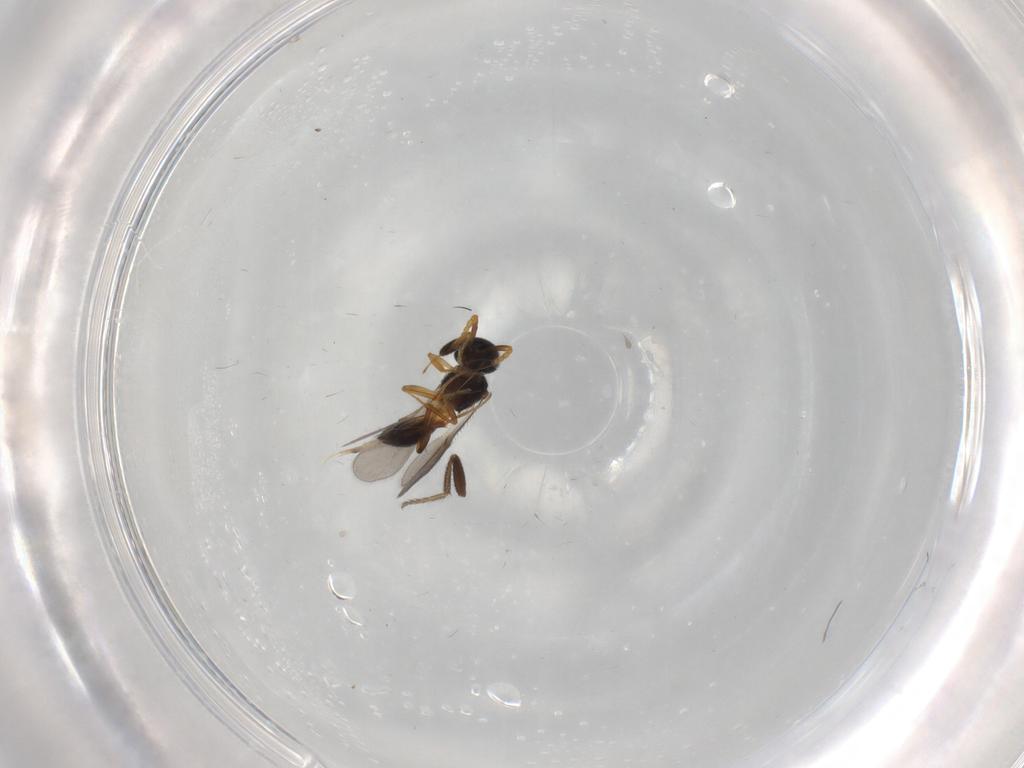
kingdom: Animalia
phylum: Arthropoda
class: Insecta
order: Hymenoptera
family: Scelionidae
